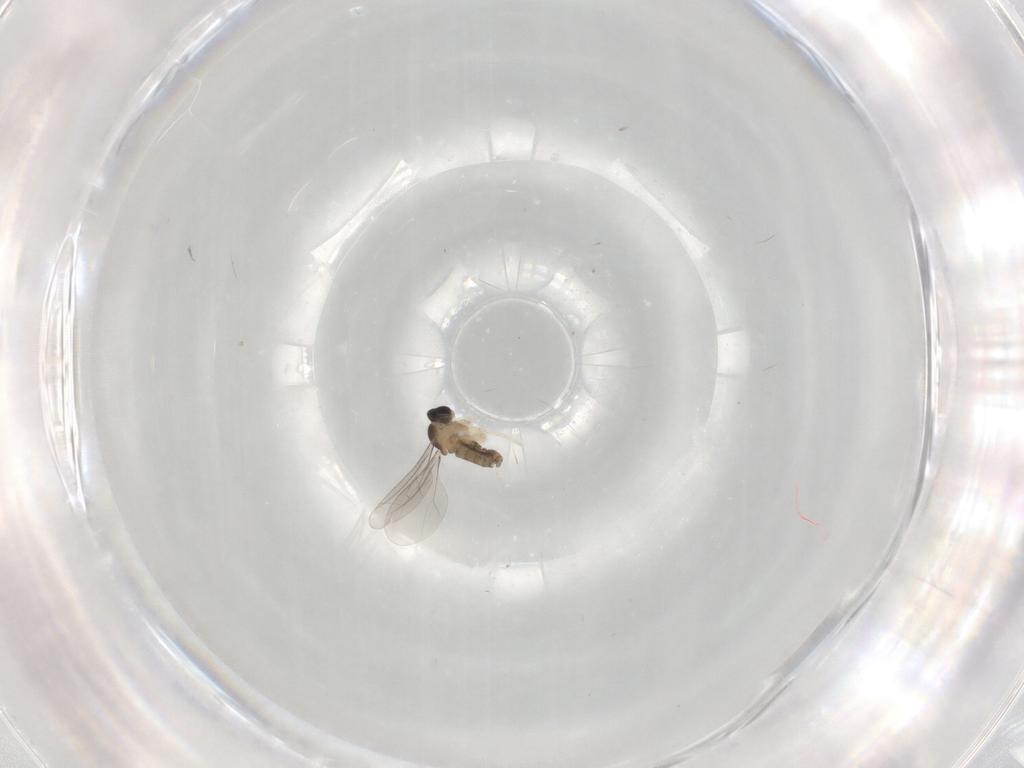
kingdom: Animalia
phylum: Arthropoda
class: Insecta
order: Diptera
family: Cecidomyiidae
